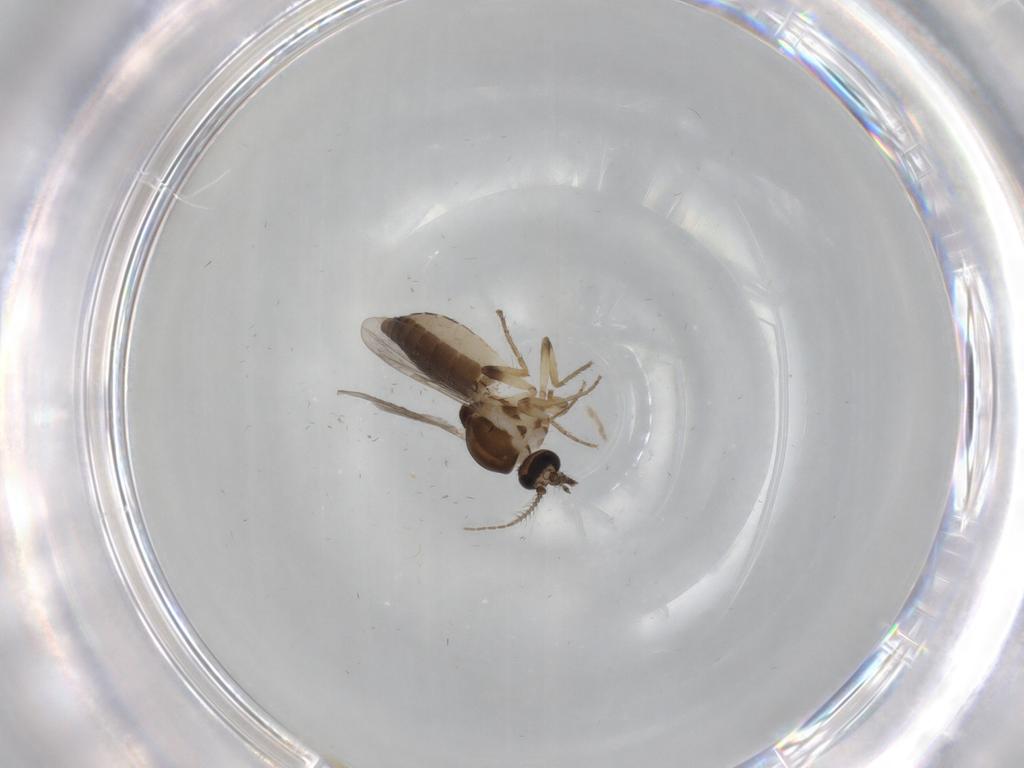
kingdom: Animalia
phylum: Arthropoda
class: Insecta
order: Diptera
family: Ceratopogonidae
